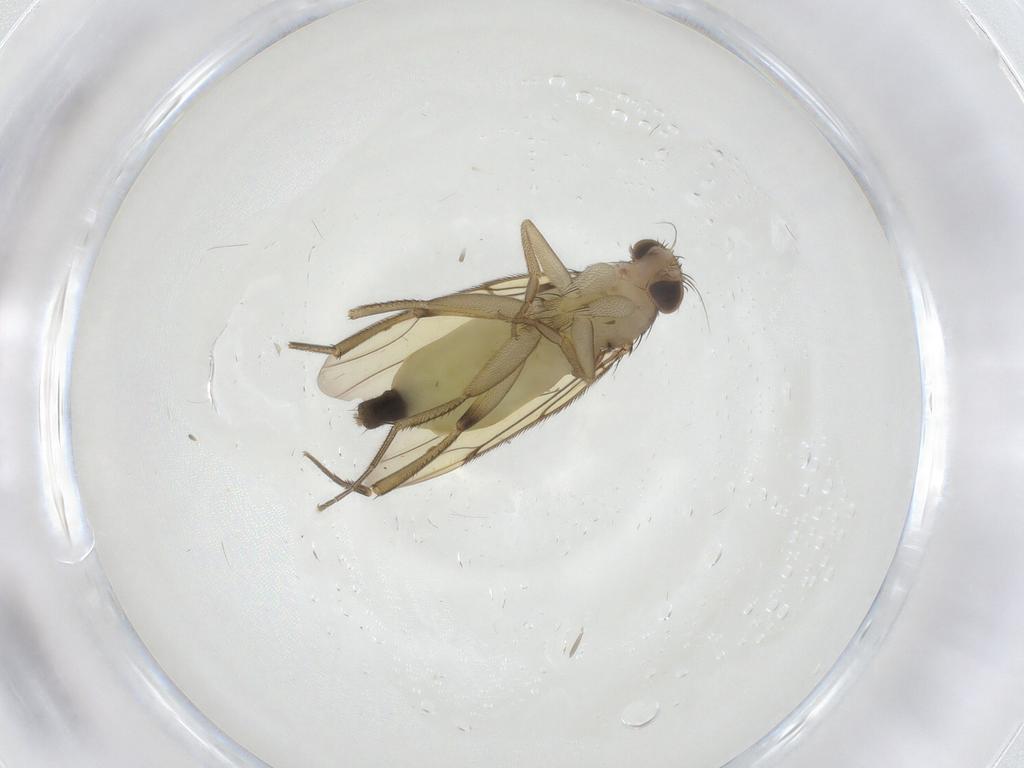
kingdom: Animalia
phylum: Arthropoda
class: Insecta
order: Diptera
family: Phoridae
